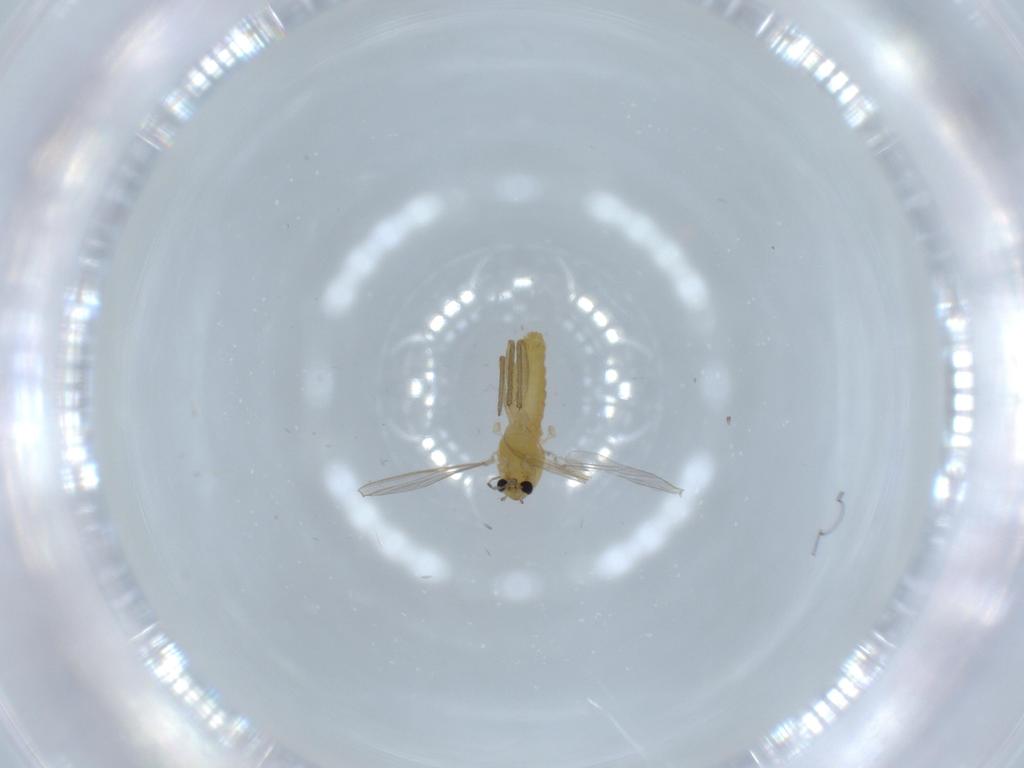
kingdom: Animalia
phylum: Arthropoda
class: Insecta
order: Diptera
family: Chironomidae
